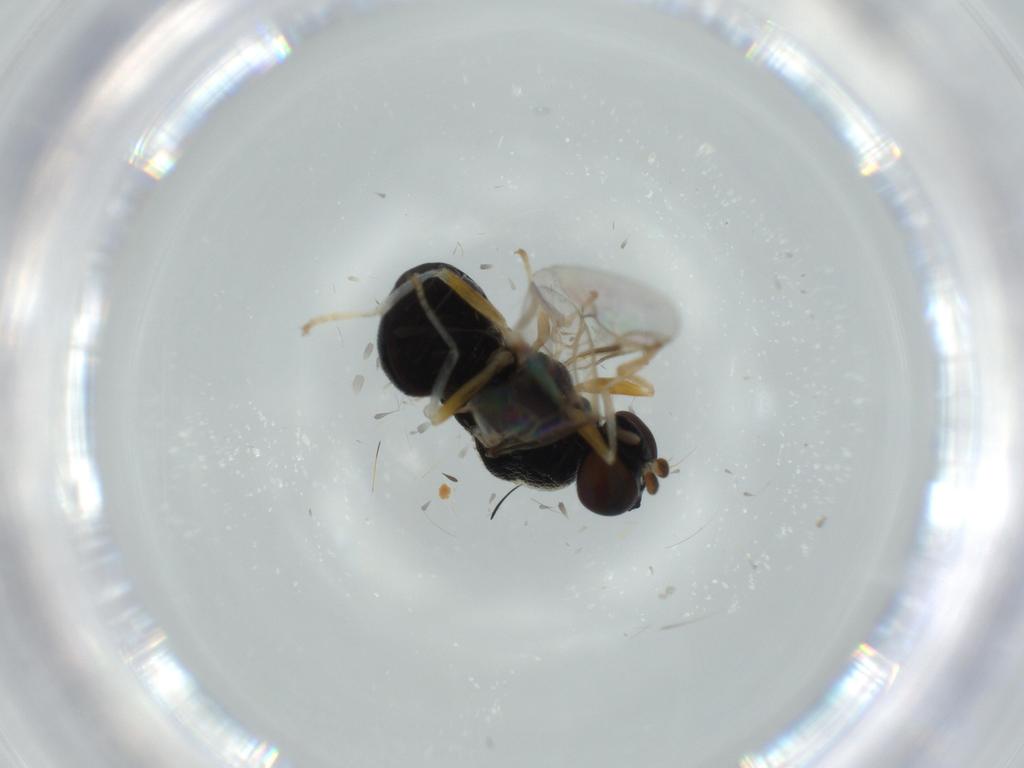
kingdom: Animalia
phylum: Arthropoda
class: Insecta
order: Diptera
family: Stratiomyidae
